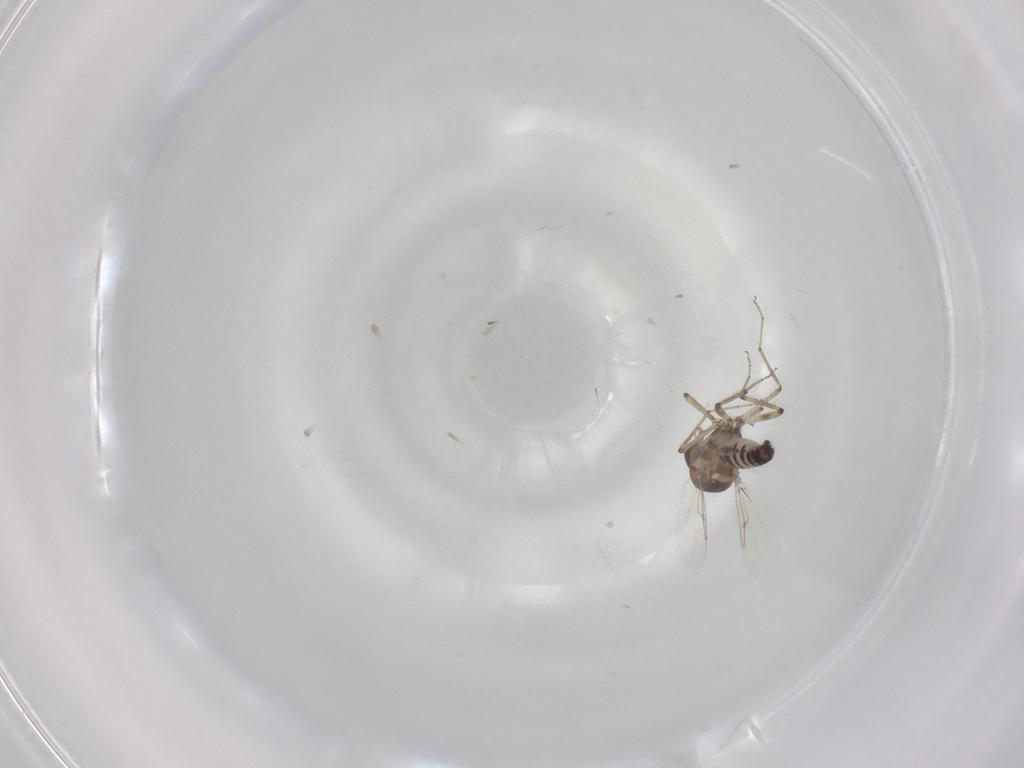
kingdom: Animalia
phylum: Arthropoda
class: Insecta
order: Diptera
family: Ceratopogonidae
